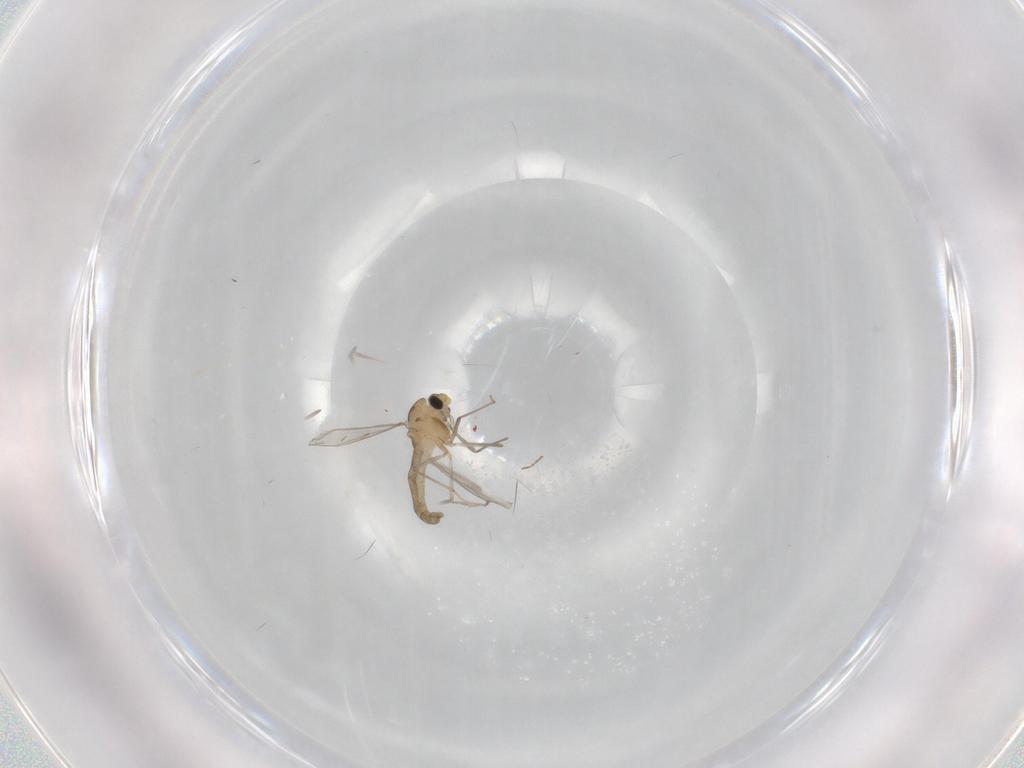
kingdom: Animalia
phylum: Arthropoda
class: Insecta
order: Diptera
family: Chironomidae
